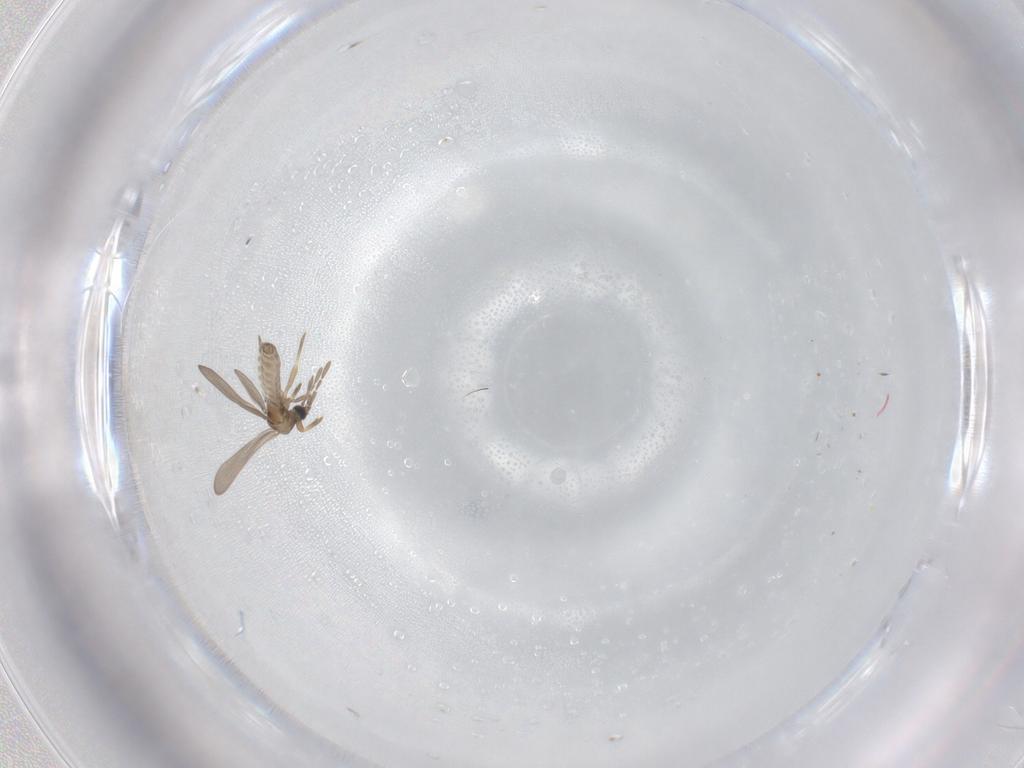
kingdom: Animalia
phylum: Arthropoda
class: Insecta
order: Hemiptera
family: Enicocephalidae
